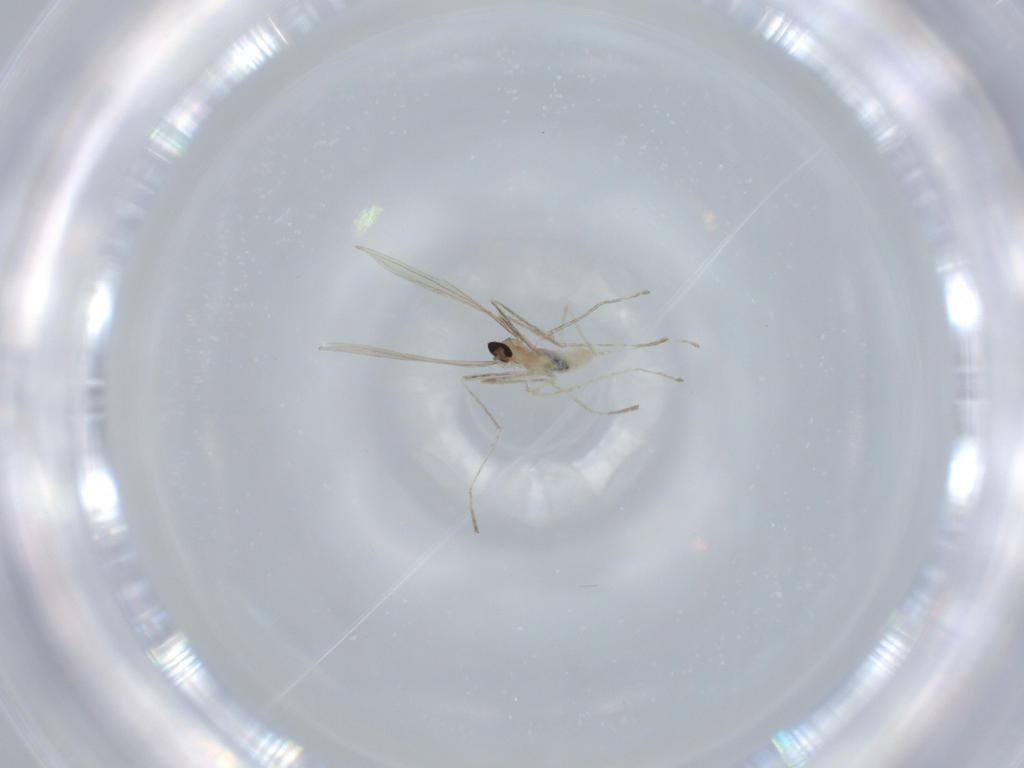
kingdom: Animalia
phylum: Arthropoda
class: Insecta
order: Diptera
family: Cecidomyiidae
